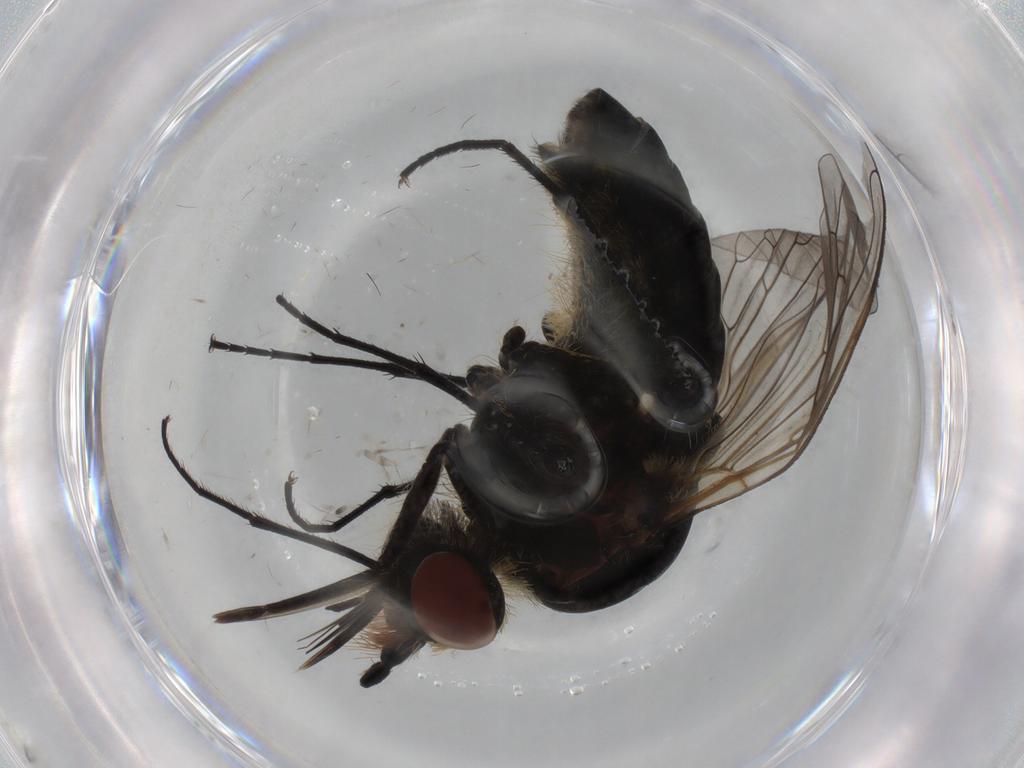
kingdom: Animalia
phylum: Arthropoda
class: Insecta
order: Diptera
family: Bombyliidae
